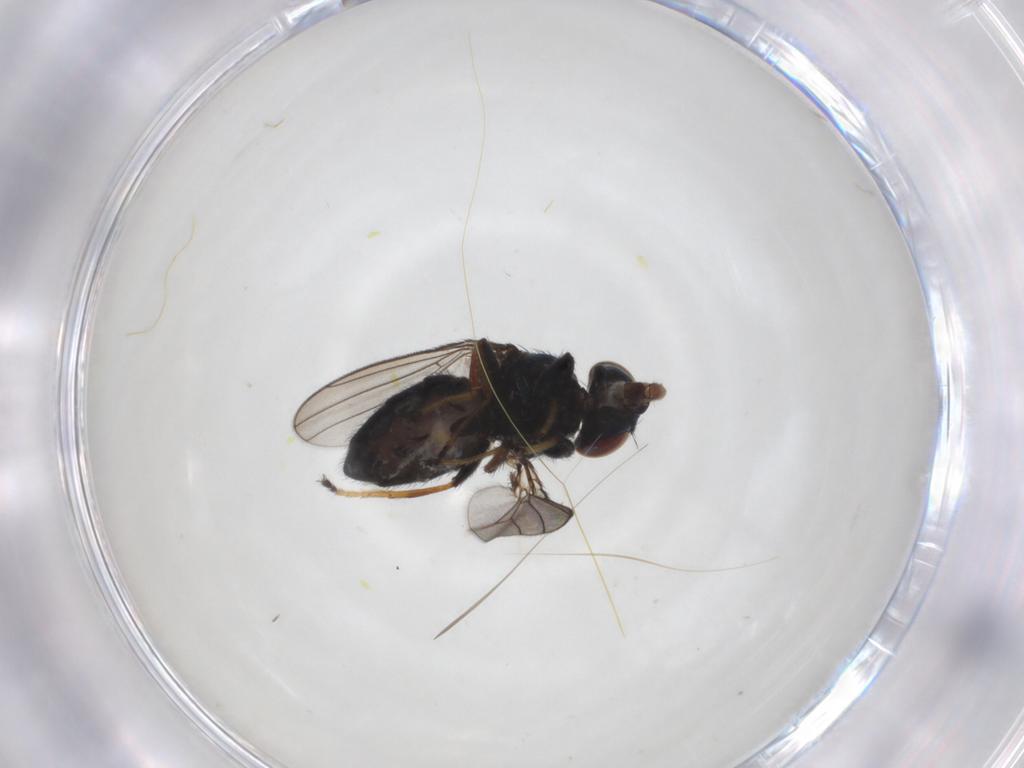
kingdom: Animalia
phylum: Arthropoda
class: Insecta
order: Diptera
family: Ephydridae
